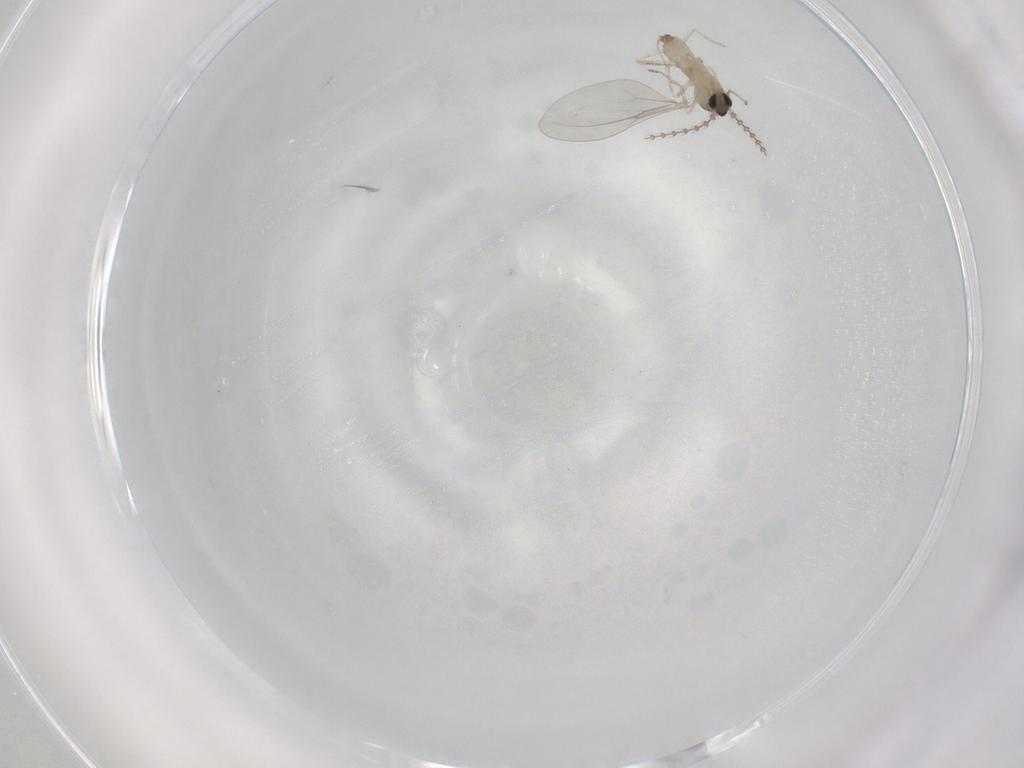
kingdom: Animalia
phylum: Arthropoda
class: Insecta
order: Diptera
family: Cecidomyiidae
